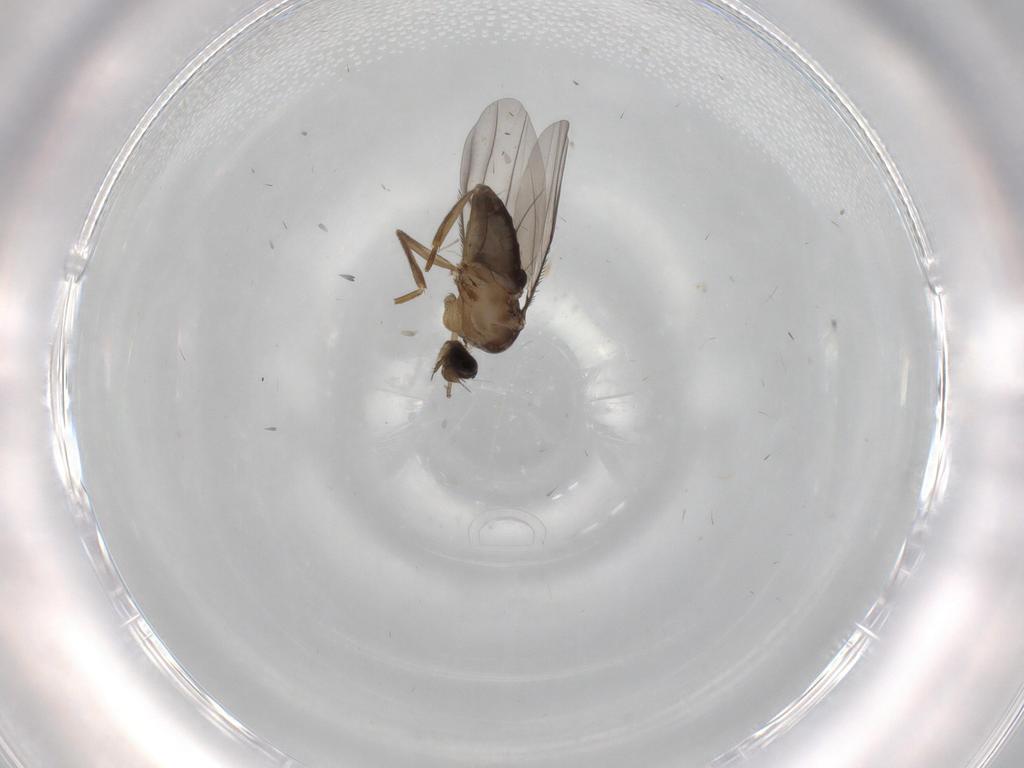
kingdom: Animalia
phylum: Arthropoda
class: Insecta
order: Diptera
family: Phoridae
